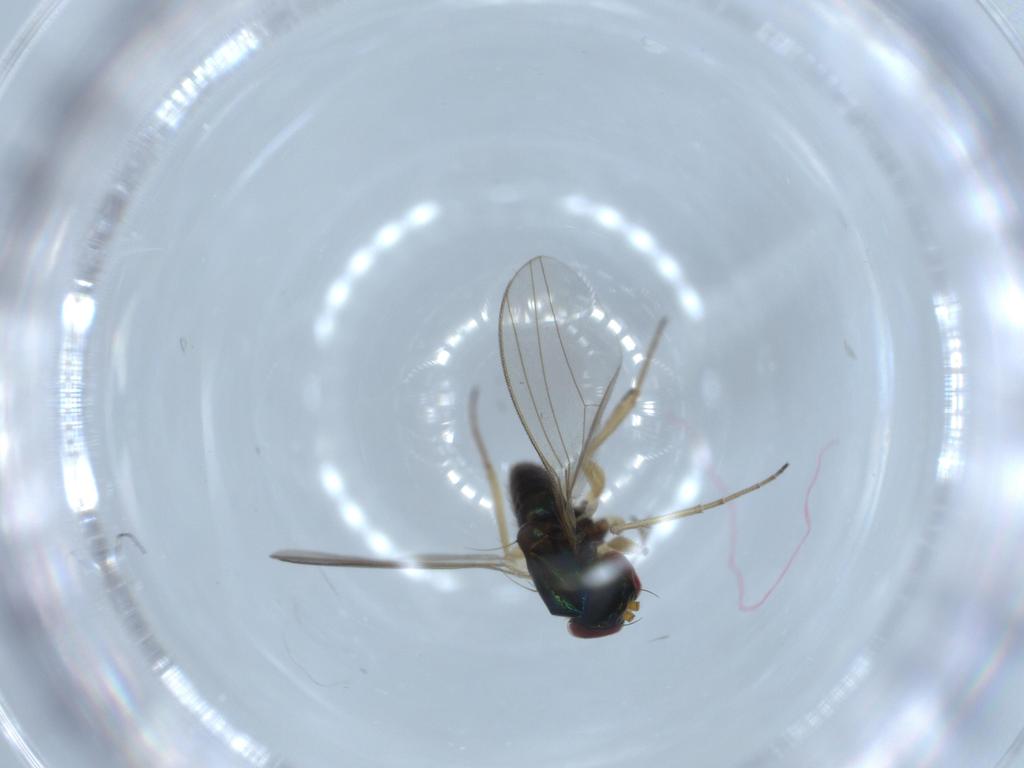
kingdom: Animalia
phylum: Arthropoda
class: Insecta
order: Diptera
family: Dolichopodidae
